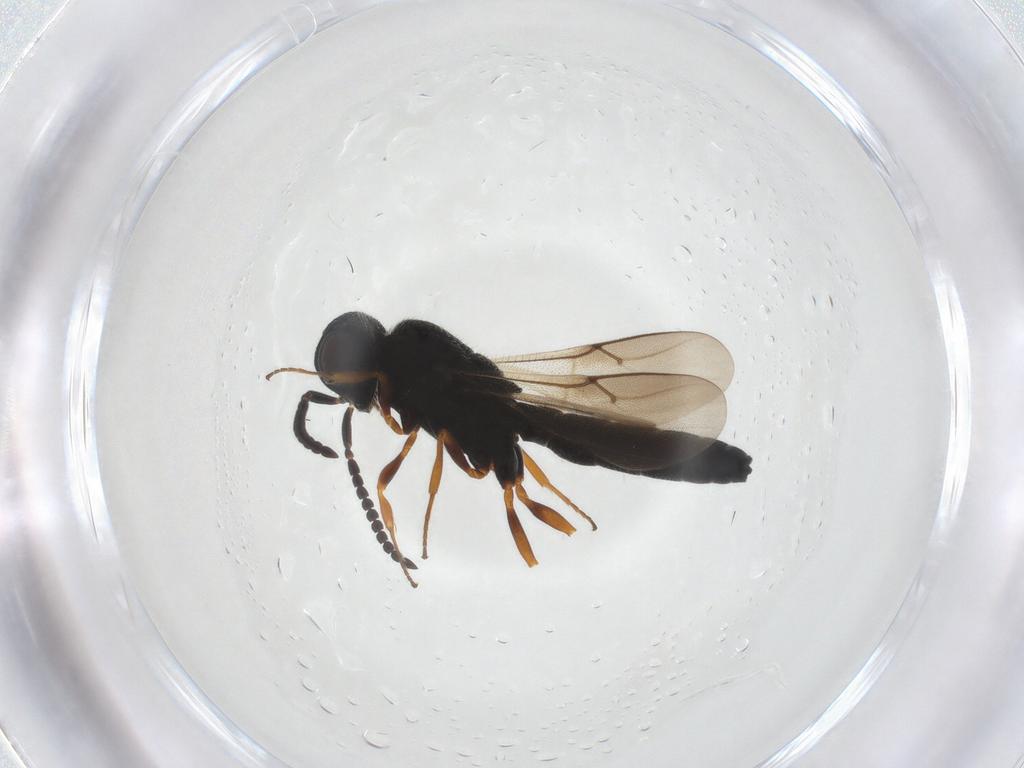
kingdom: Animalia
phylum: Arthropoda
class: Insecta
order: Hymenoptera
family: Scelionidae
